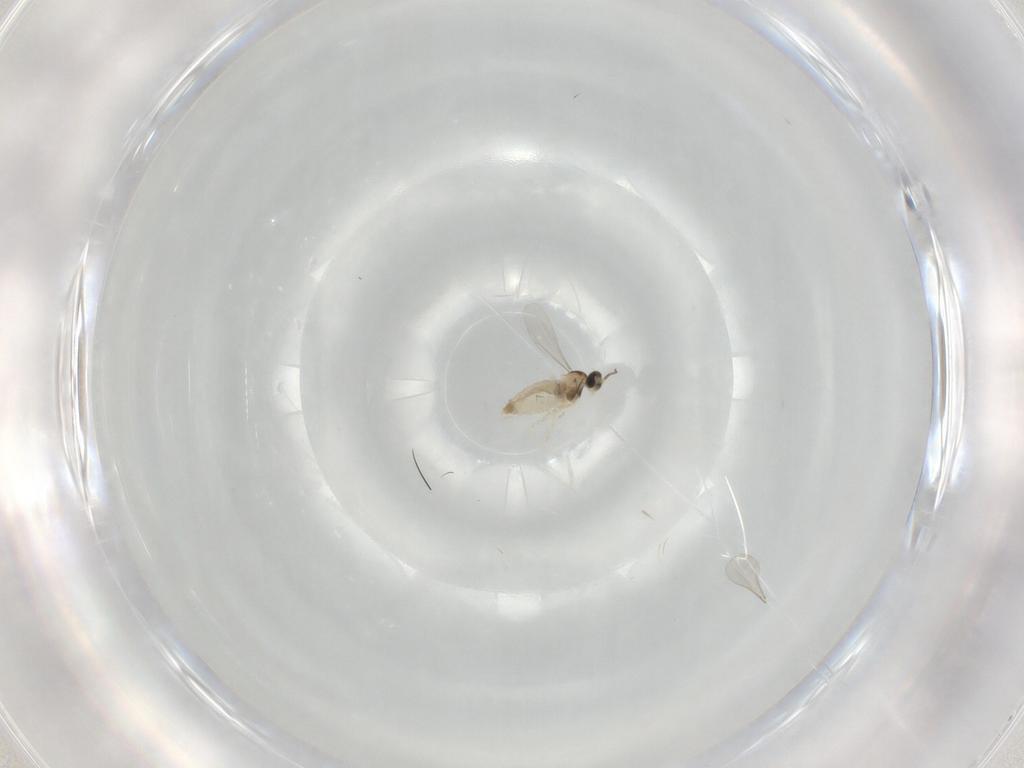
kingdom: Animalia
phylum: Arthropoda
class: Insecta
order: Diptera
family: Cecidomyiidae
